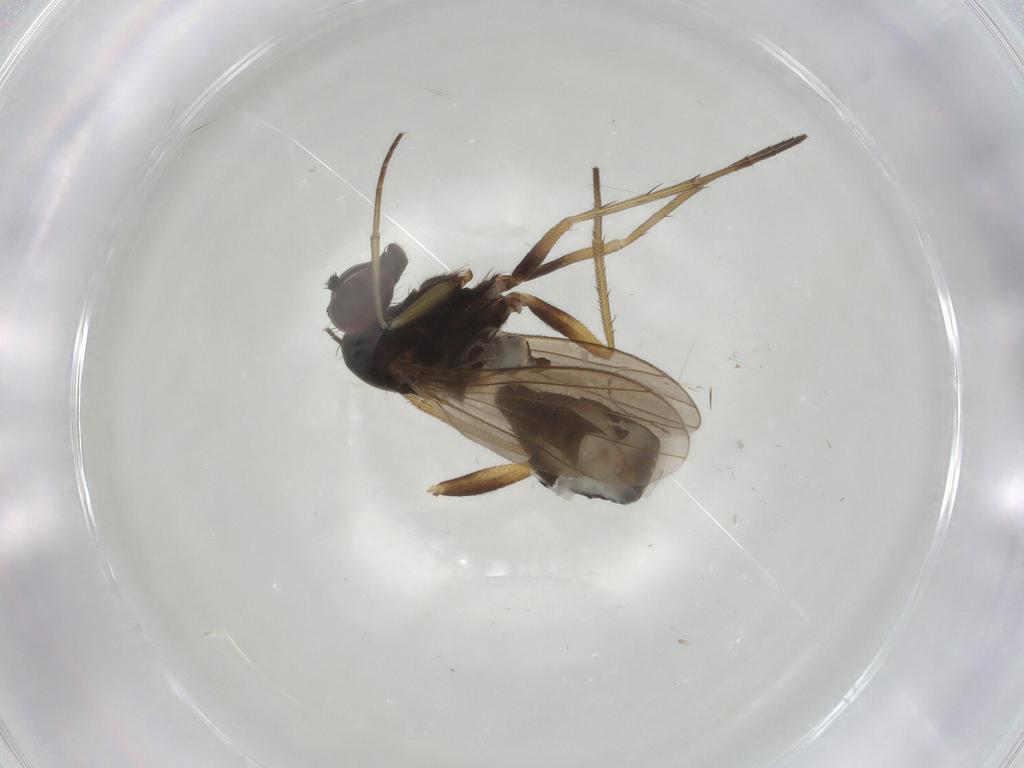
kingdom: Animalia
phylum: Arthropoda
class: Insecta
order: Diptera
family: Dolichopodidae
